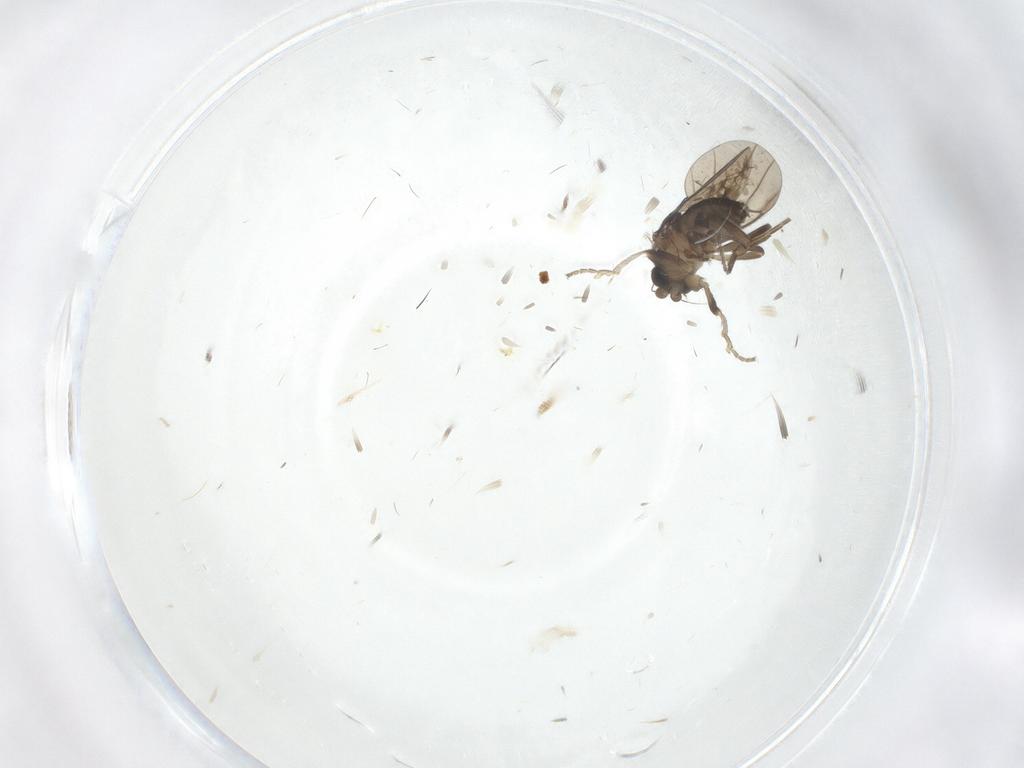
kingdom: Animalia
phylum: Arthropoda
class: Insecta
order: Diptera
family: Chironomidae
